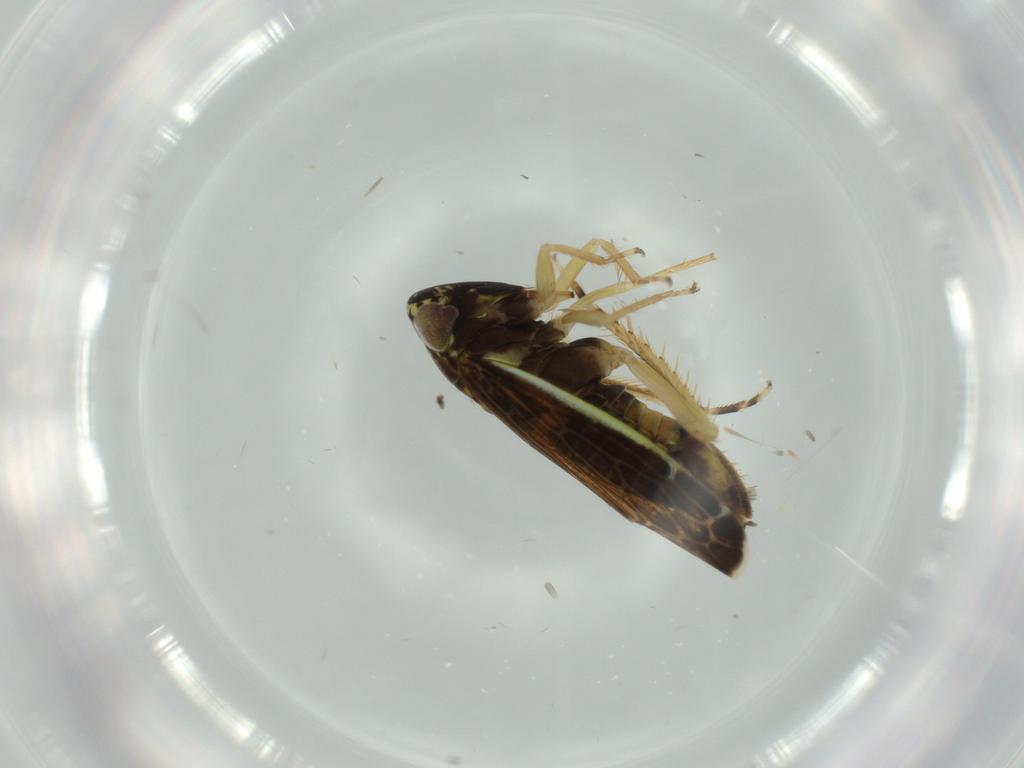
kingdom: Animalia
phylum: Arthropoda
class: Insecta
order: Hemiptera
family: Cicadellidae
